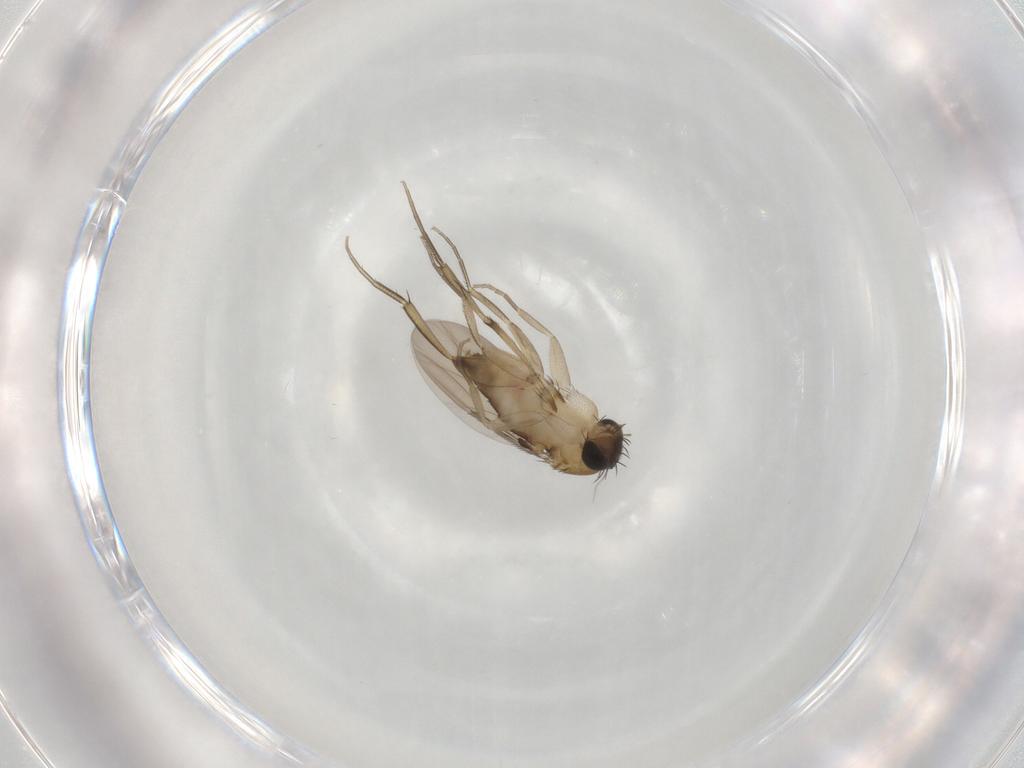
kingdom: Animalia
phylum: Arthropoda
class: Insecta
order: Diptera
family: Phoridae
